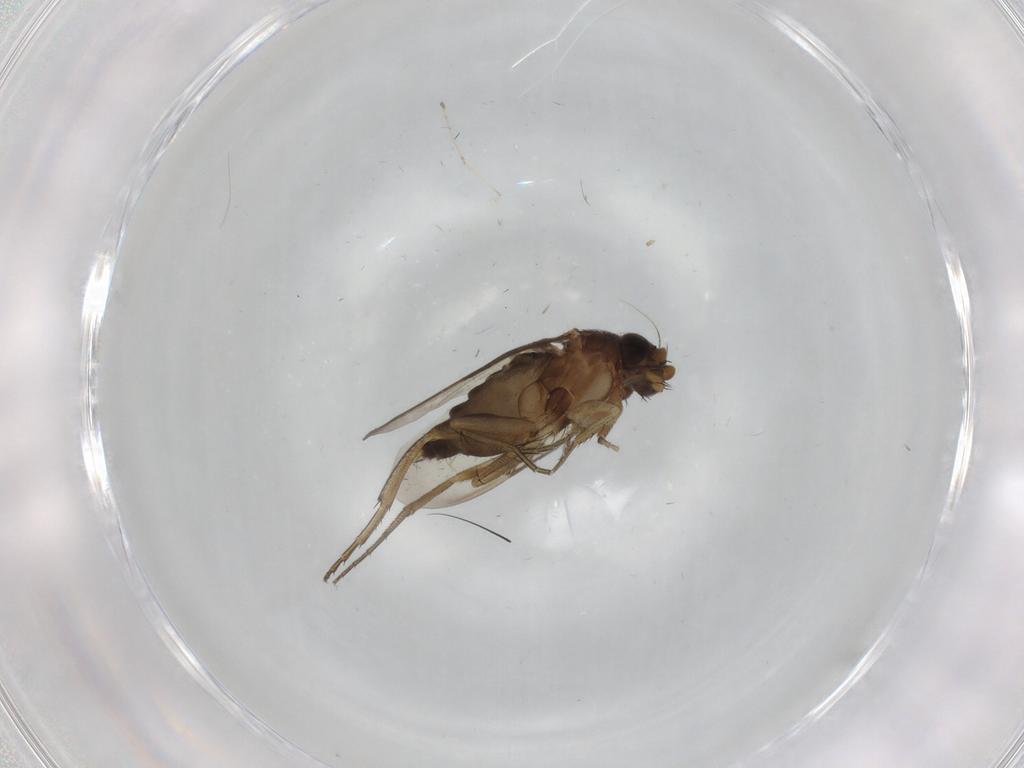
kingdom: Animalia
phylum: Arthropoda
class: Insecta
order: Diptera
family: Phoridae
